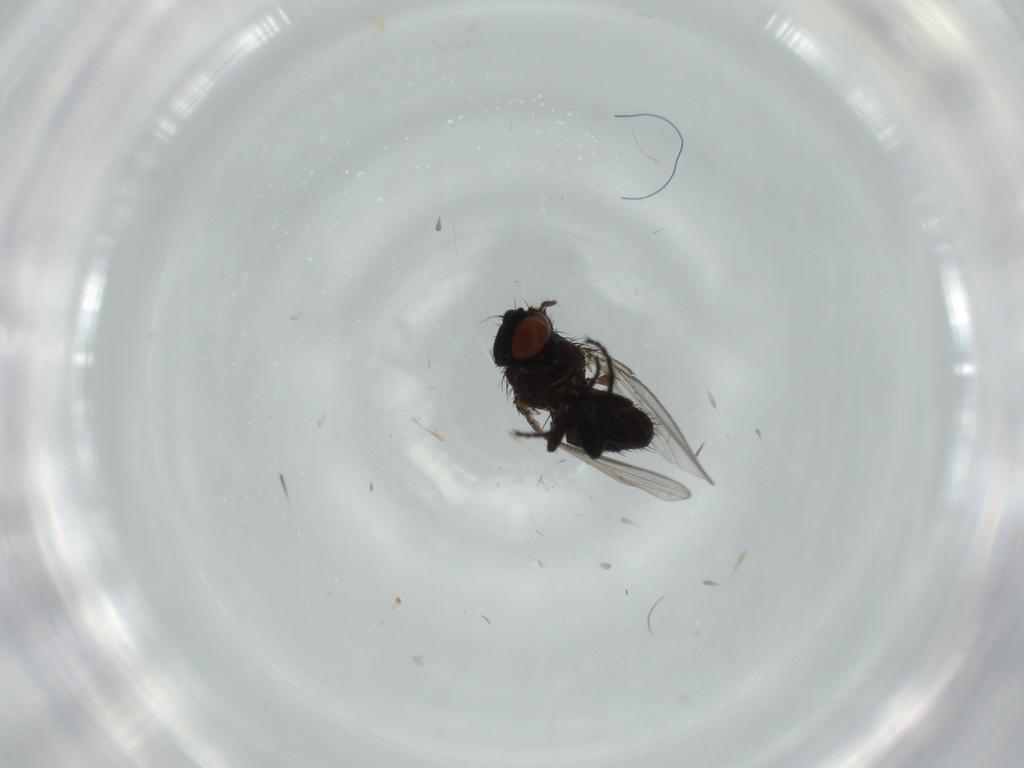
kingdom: Animalia
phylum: Arthropoda
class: Insecta
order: Diptera
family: Milichiidae
